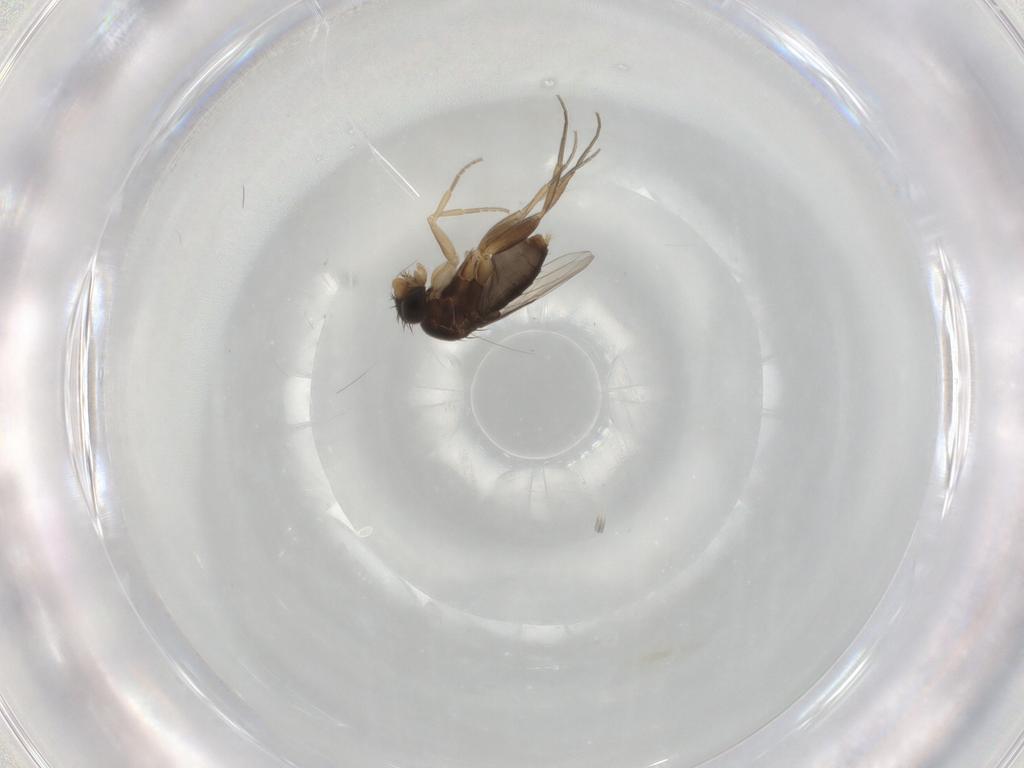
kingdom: Animalia
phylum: Arthropoda
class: Insecta
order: Diptera
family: Phoridae
